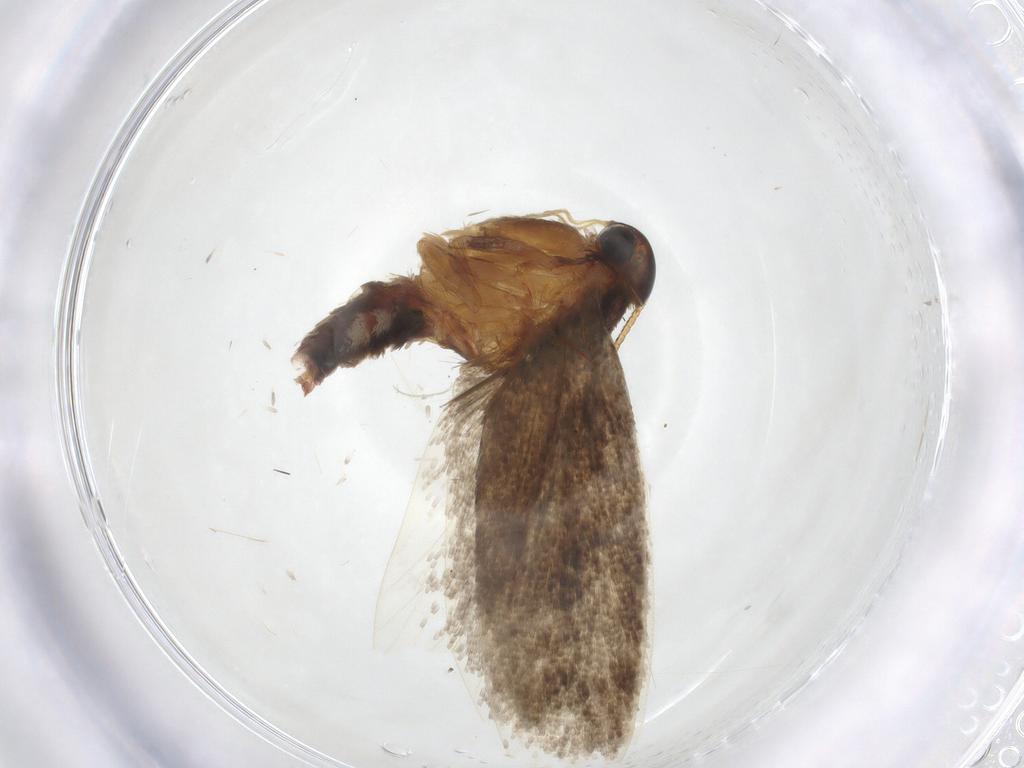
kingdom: Animalia
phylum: Arthropoda
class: Insecta
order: Lepidoptera
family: Oecophoridae
